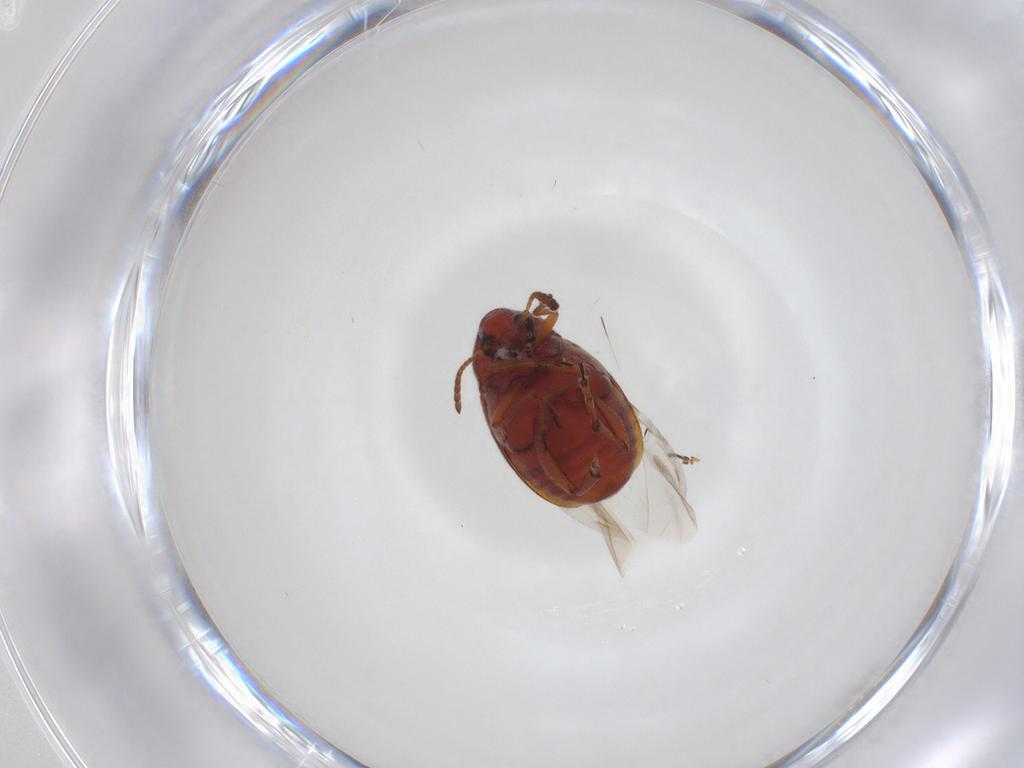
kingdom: Animalia
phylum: Arthropoda
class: Insecta
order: Coleoptera
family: Chrysomelidae
